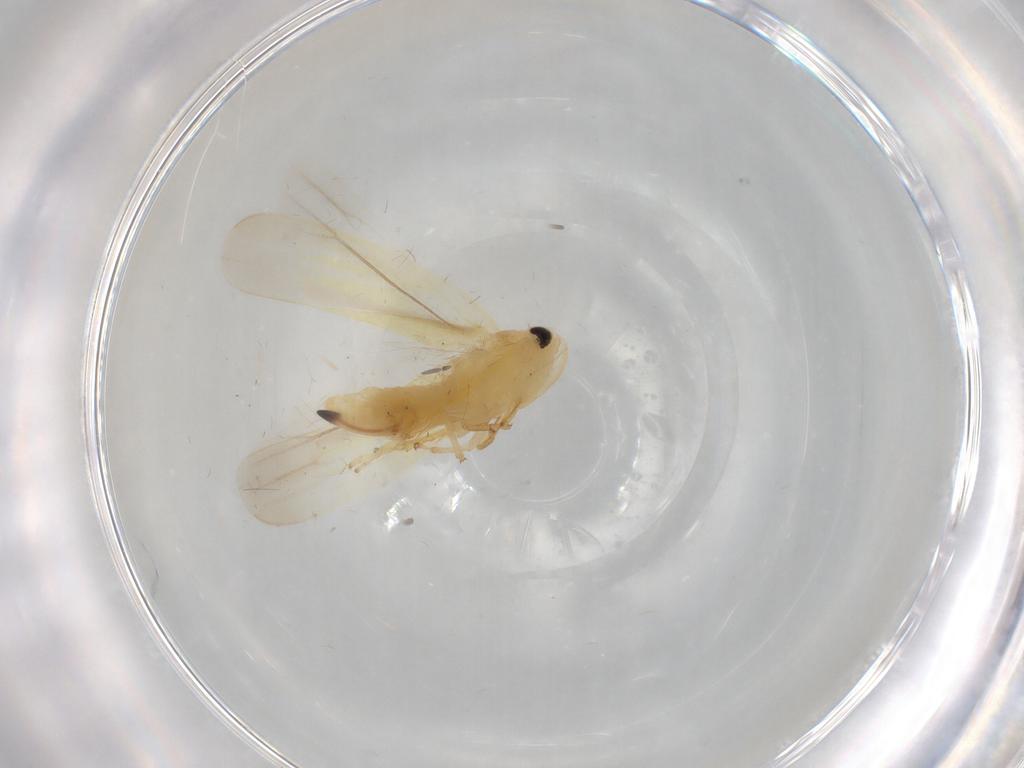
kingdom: Animalia
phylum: Arthropoda
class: Insecta
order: Hemiptera
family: Cicadellidae
